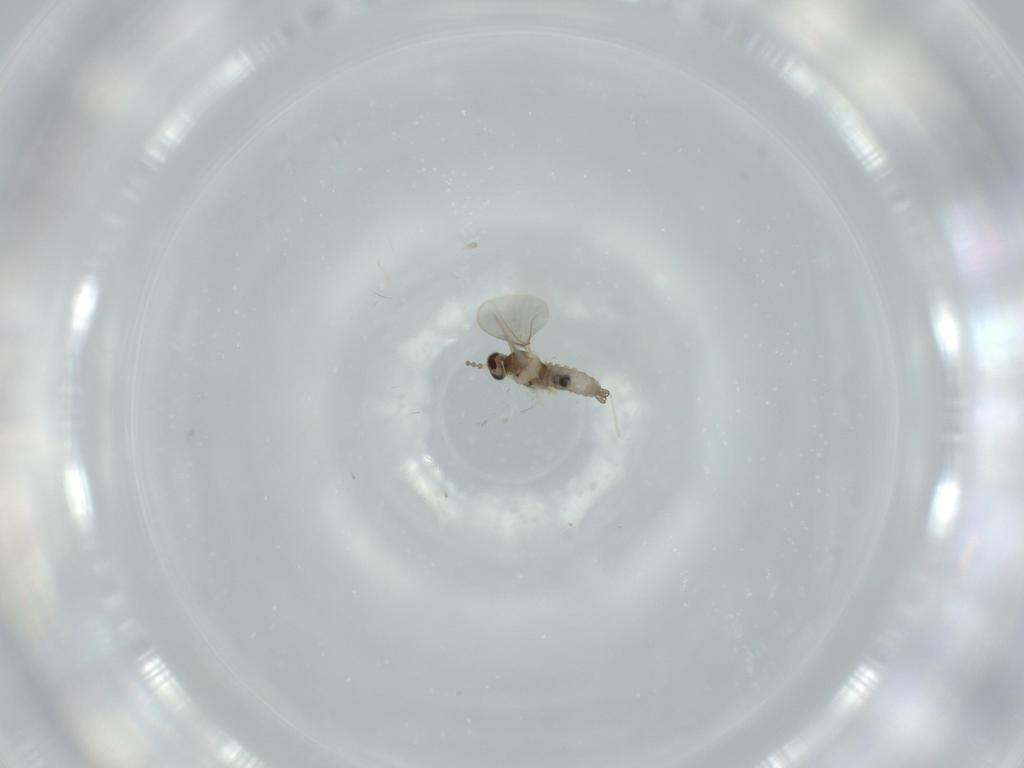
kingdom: Animalia
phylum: Arthropoda
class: Insecta
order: Diptera
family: Cecidomyiidae
